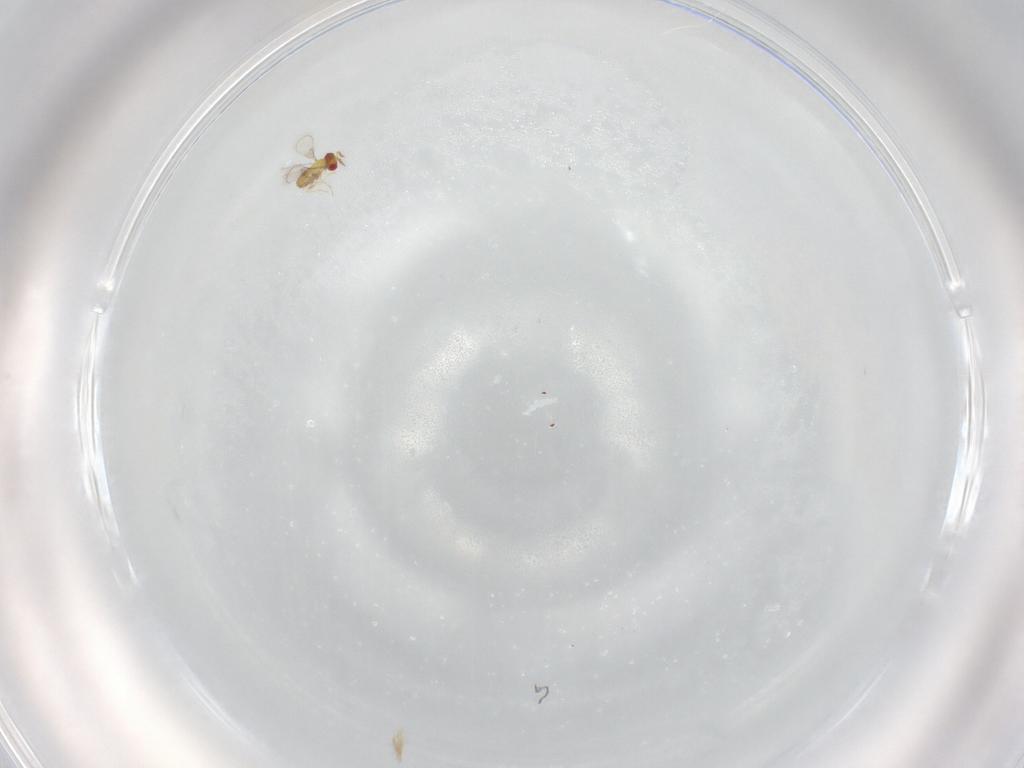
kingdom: Animalia
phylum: Arthropoda
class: Insecta
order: Hymenoptera
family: Trichogrammatidae
